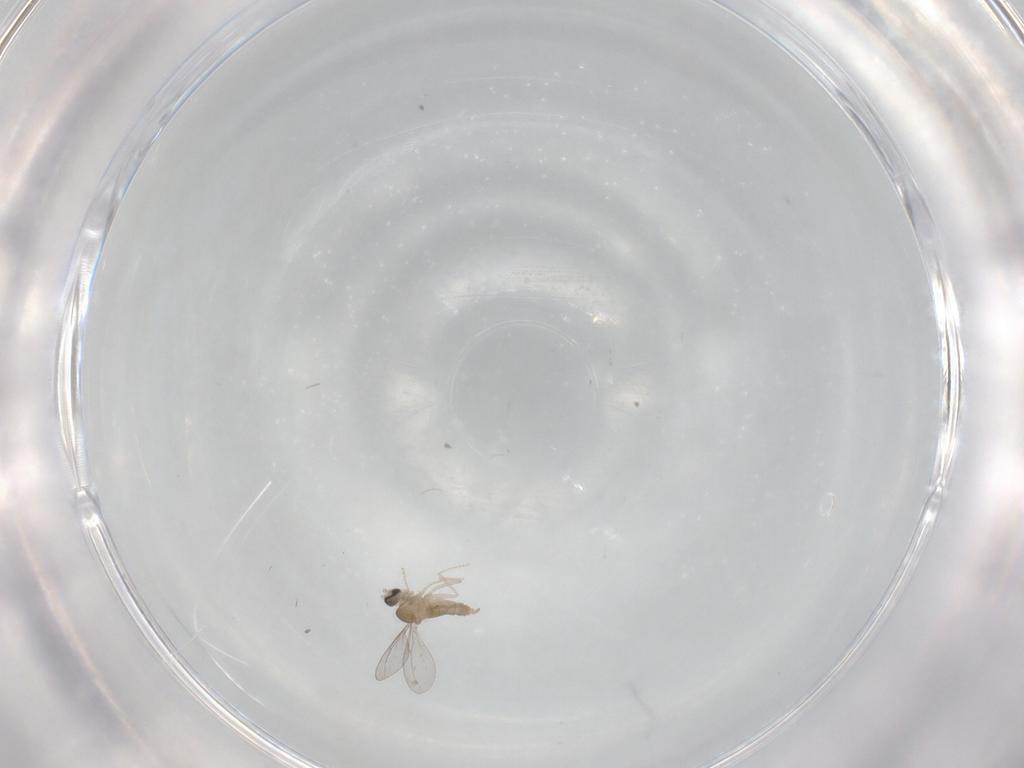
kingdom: Animalia
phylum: Arthropoda
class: Insecta
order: Diptera
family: Cecidomyiidae
